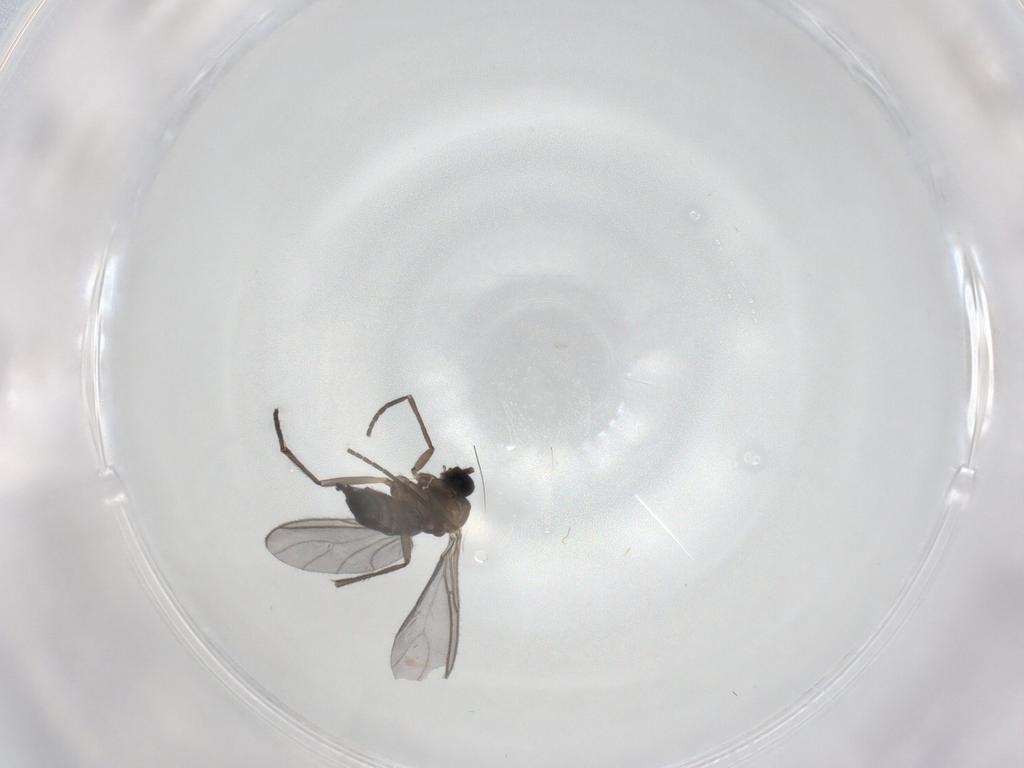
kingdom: Animalia
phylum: Arthropoda
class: Insecta
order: Diptera
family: Sciaridae
